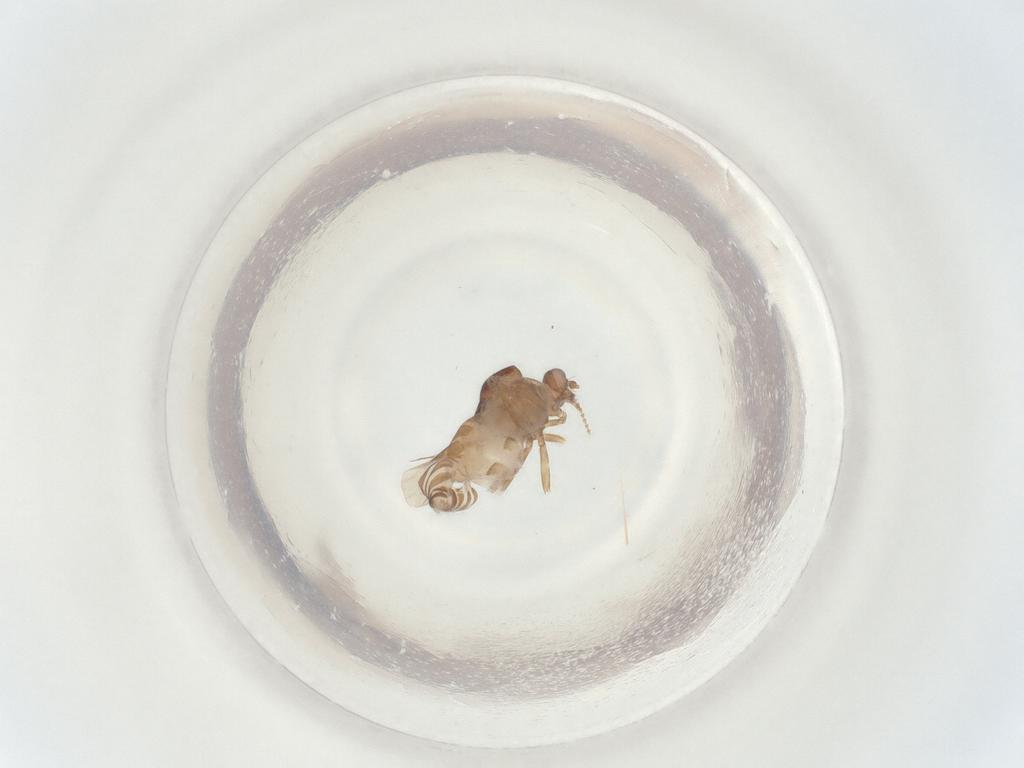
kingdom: Animalia
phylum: Arthropoda
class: Insecta
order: Diptera
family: Ceratopogonidae
